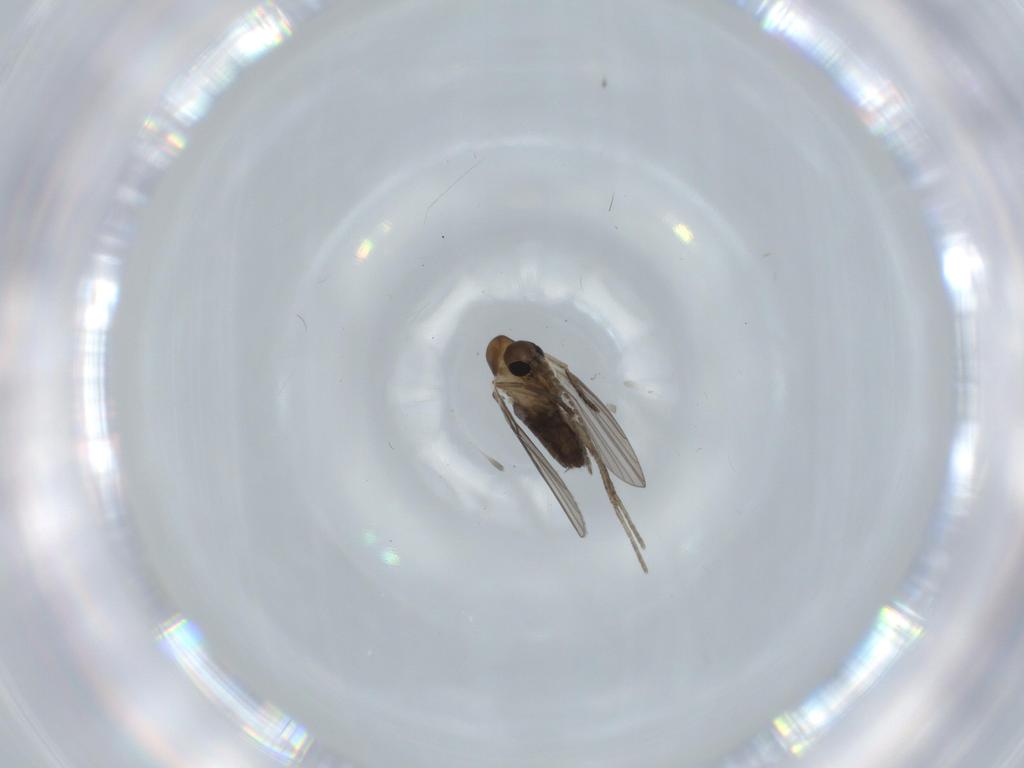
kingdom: Animalia
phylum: Arthropoda
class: Insecta
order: Diptera
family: Psychodidae
